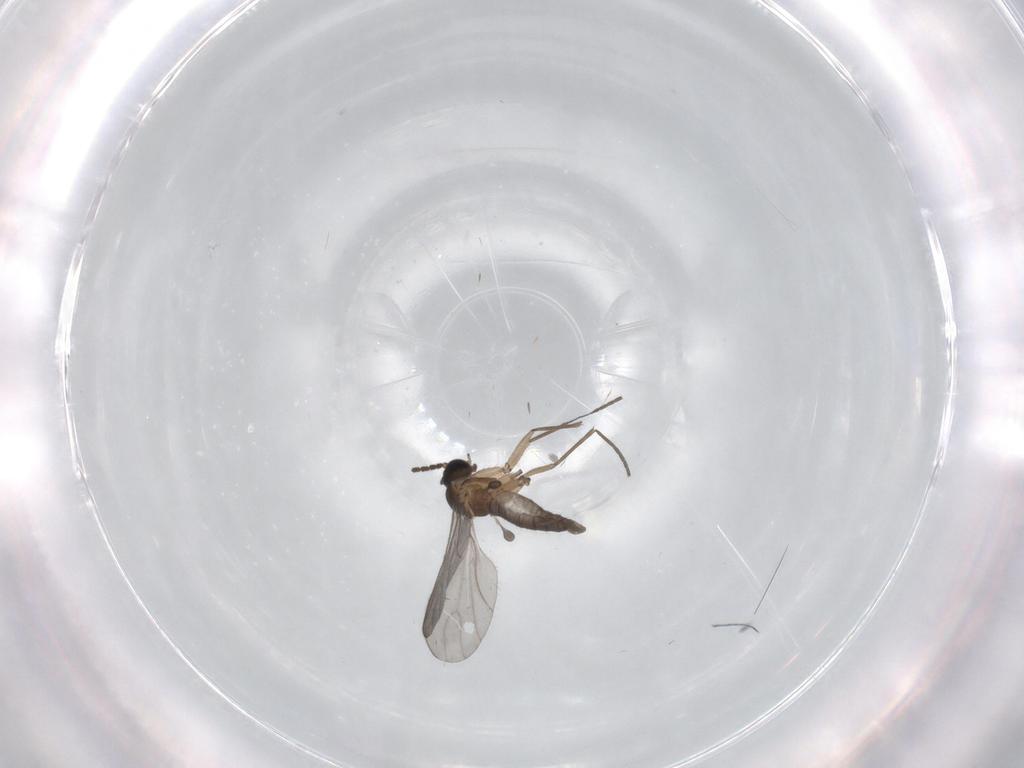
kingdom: Animalia
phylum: Arthropoda
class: Insecta
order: Diptera
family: Sciaridae
